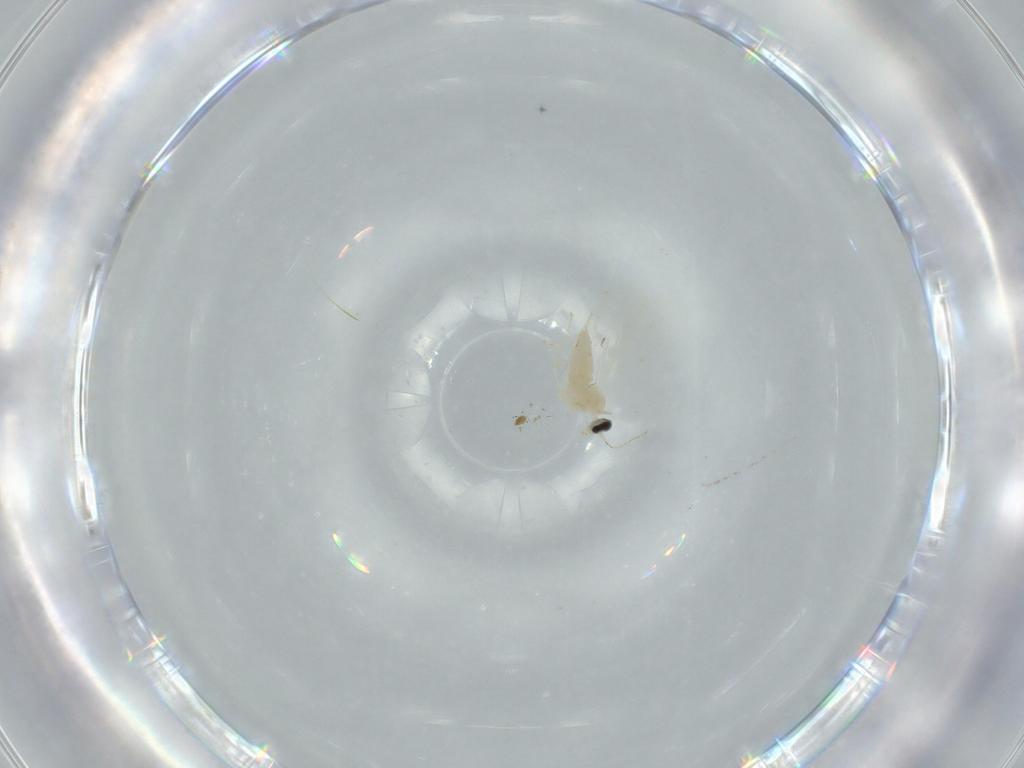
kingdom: Animalia
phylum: Arthropoda
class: Insecta
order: Diptera
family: Cecidomyiidae
